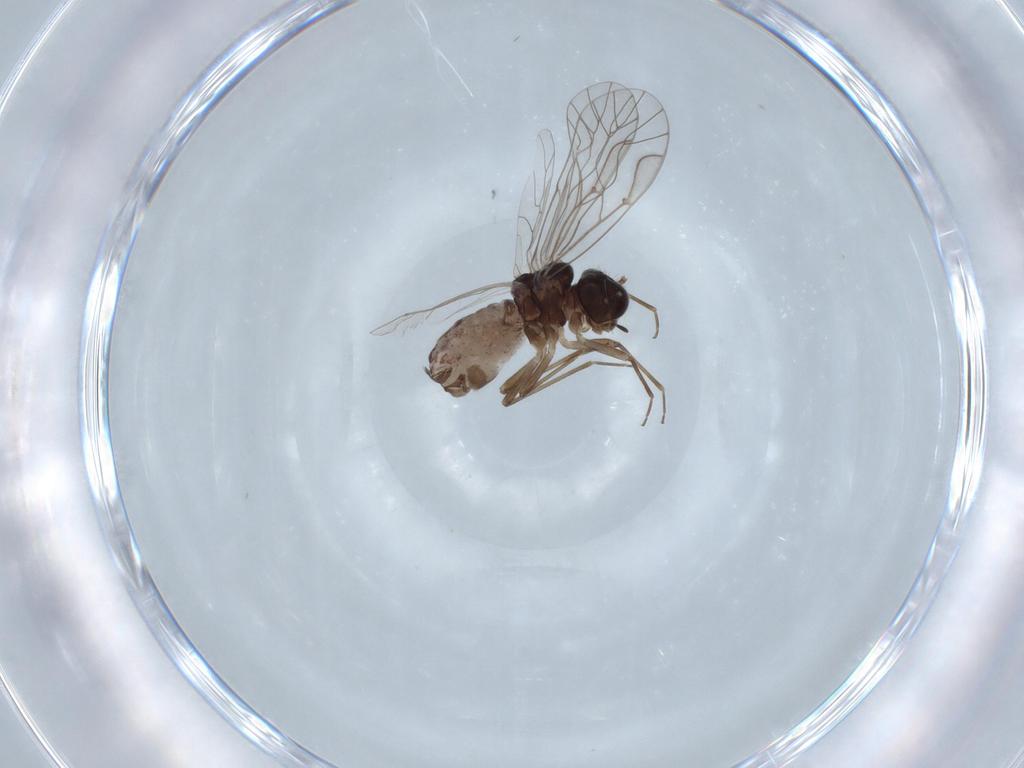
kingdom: Animalia
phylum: Arthropoda
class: Insecta
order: Psocodea
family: Lachesillidae
